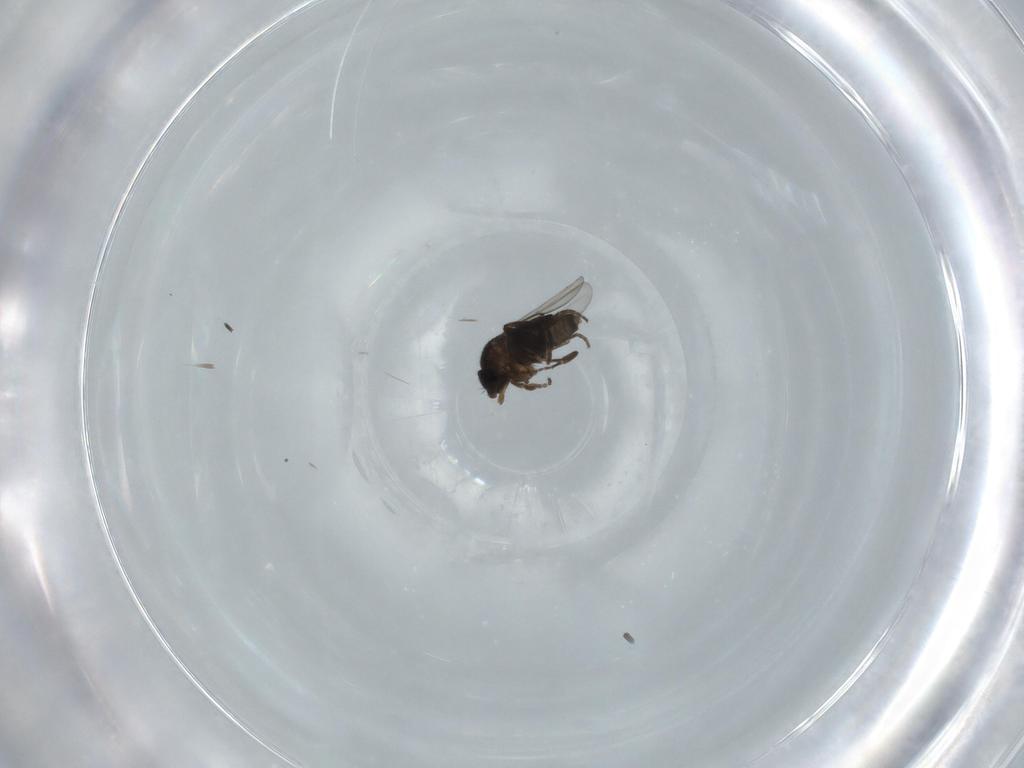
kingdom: Animalia
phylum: Arthropoda
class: Insecta
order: Diptera
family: Phoridae
